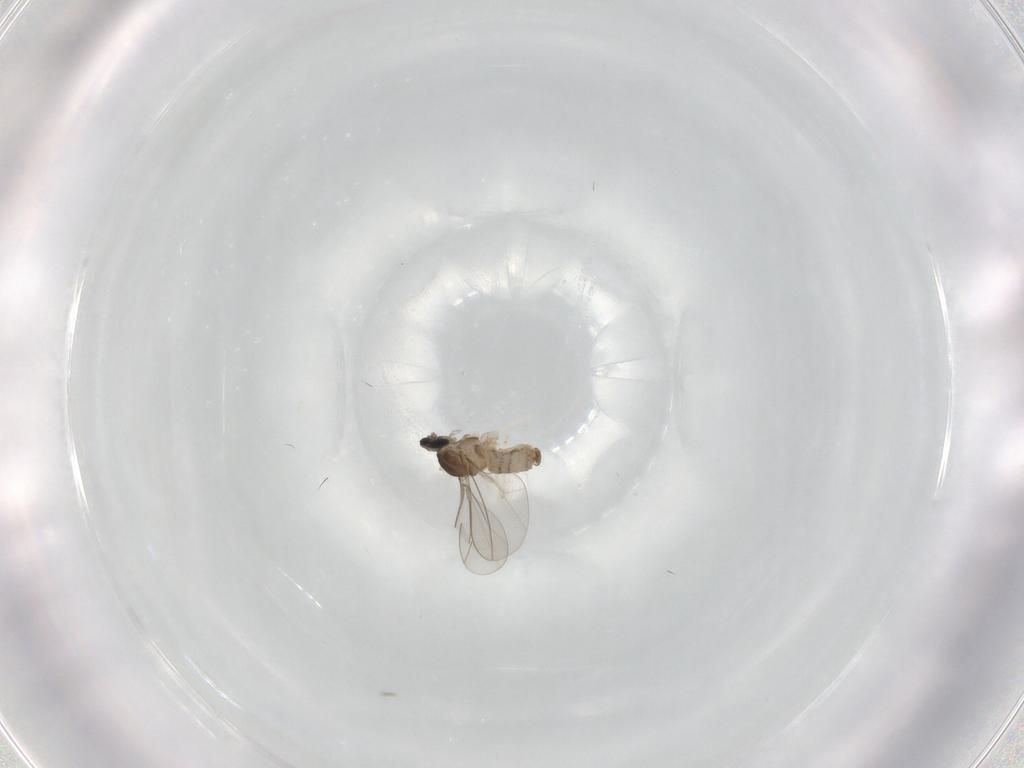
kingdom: Animalia
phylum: Arthropoda
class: Insecta
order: Diptera
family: Cecidomyiidae
